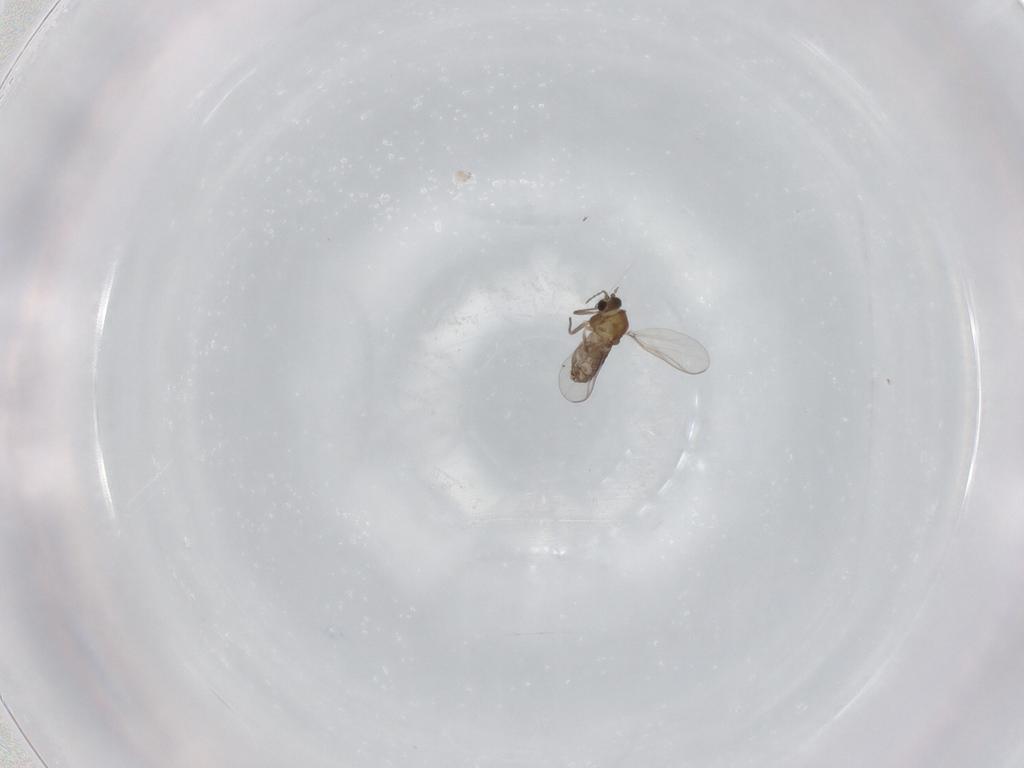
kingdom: Animalia
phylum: Arthropoda
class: Insecta
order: Diptera
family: Chironomidae
